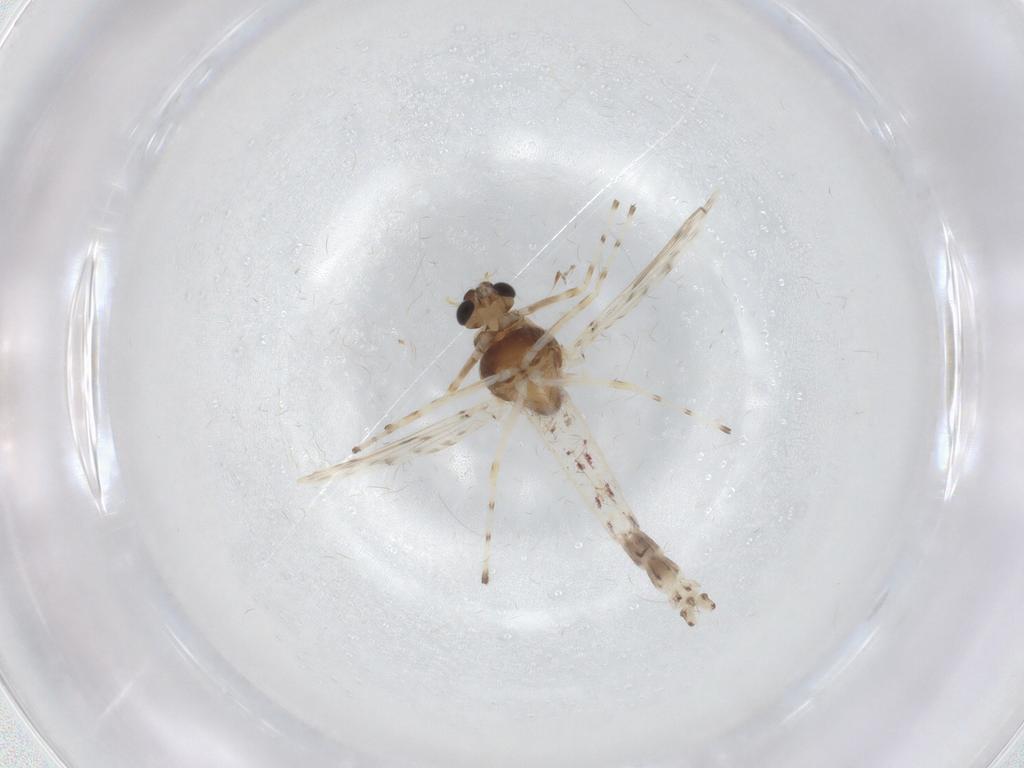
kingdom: Animalia
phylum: Arthropoda
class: Insecta
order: Diptera
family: Chironomidae
